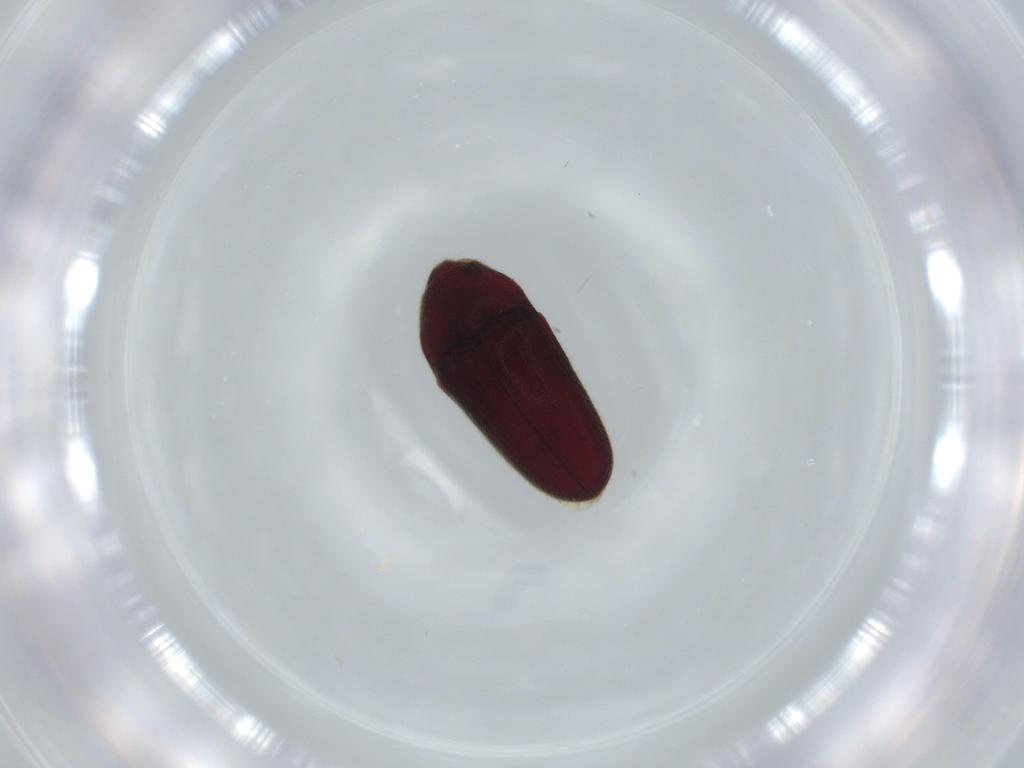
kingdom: Animalia
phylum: Arthropoda
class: Insecta
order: Coleoptera
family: Throscidae
